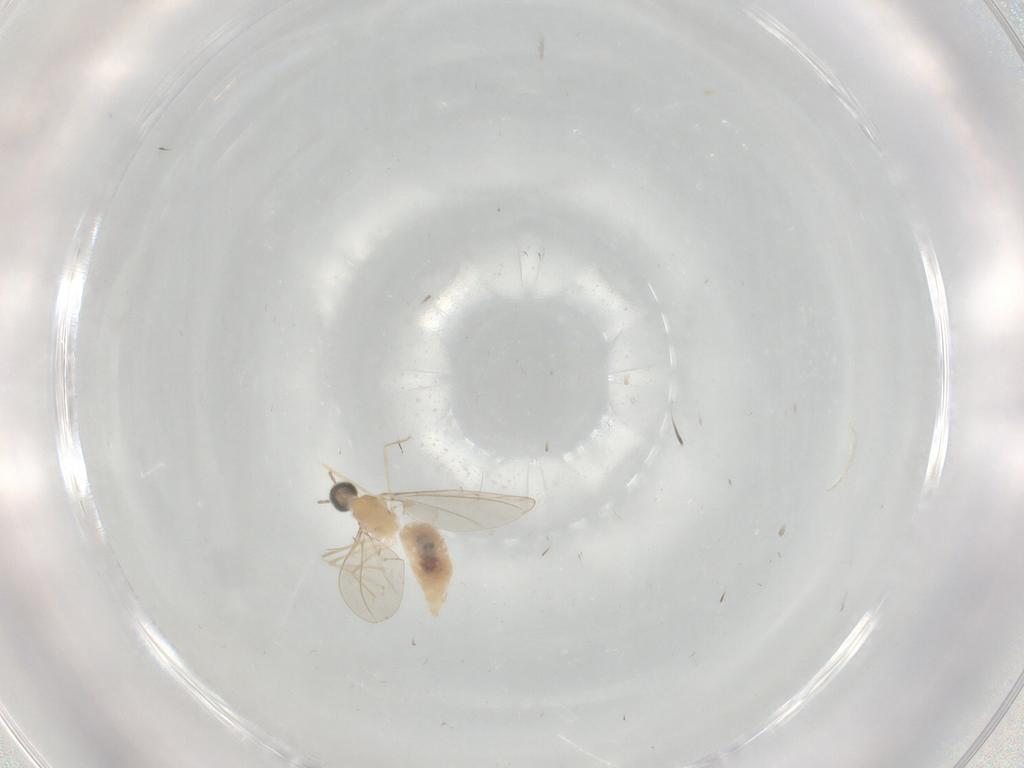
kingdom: Animalia
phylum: Arthropoda
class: Insecta
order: Diptera
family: Cecidomyiidae
